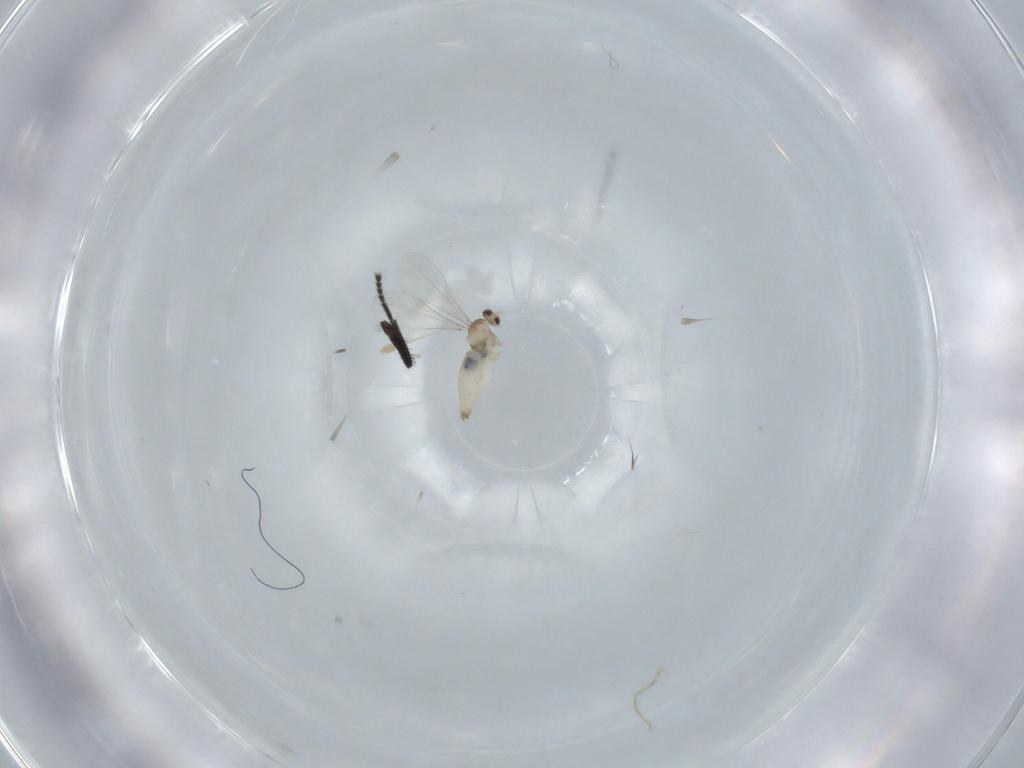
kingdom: Animalia
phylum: Arthropoda
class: Insecta
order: Diptera
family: Cecidomyiidae
